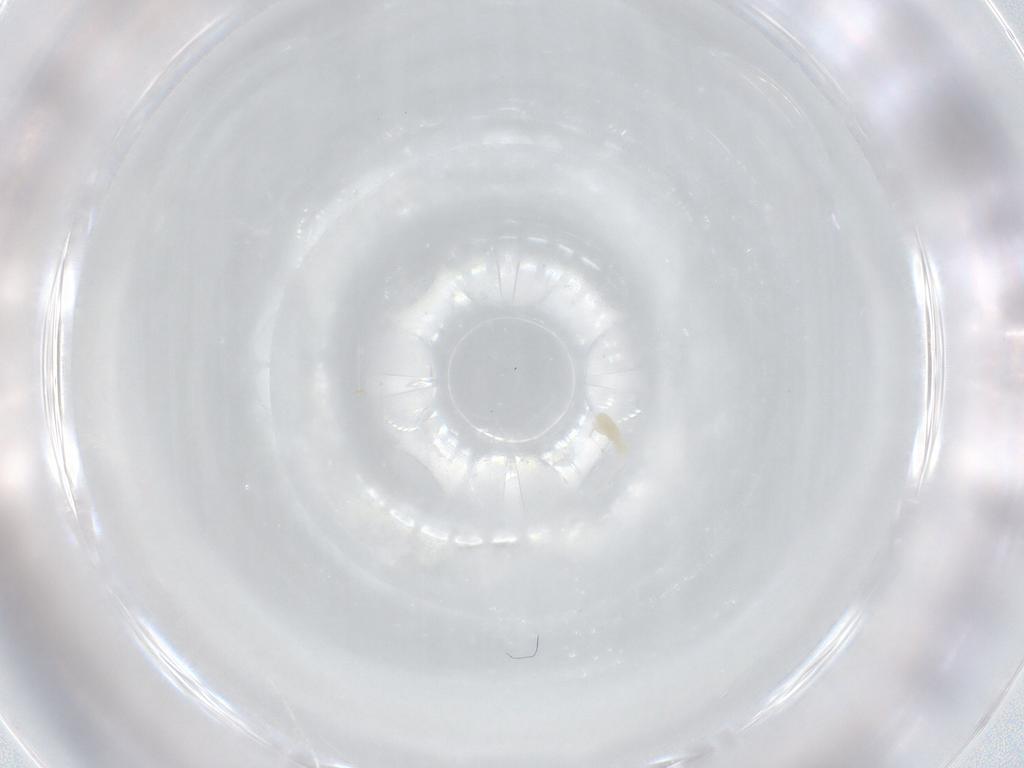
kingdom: Animalia
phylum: Arthropoda
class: Arachnida
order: Trombidiformes
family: Eupodidae
